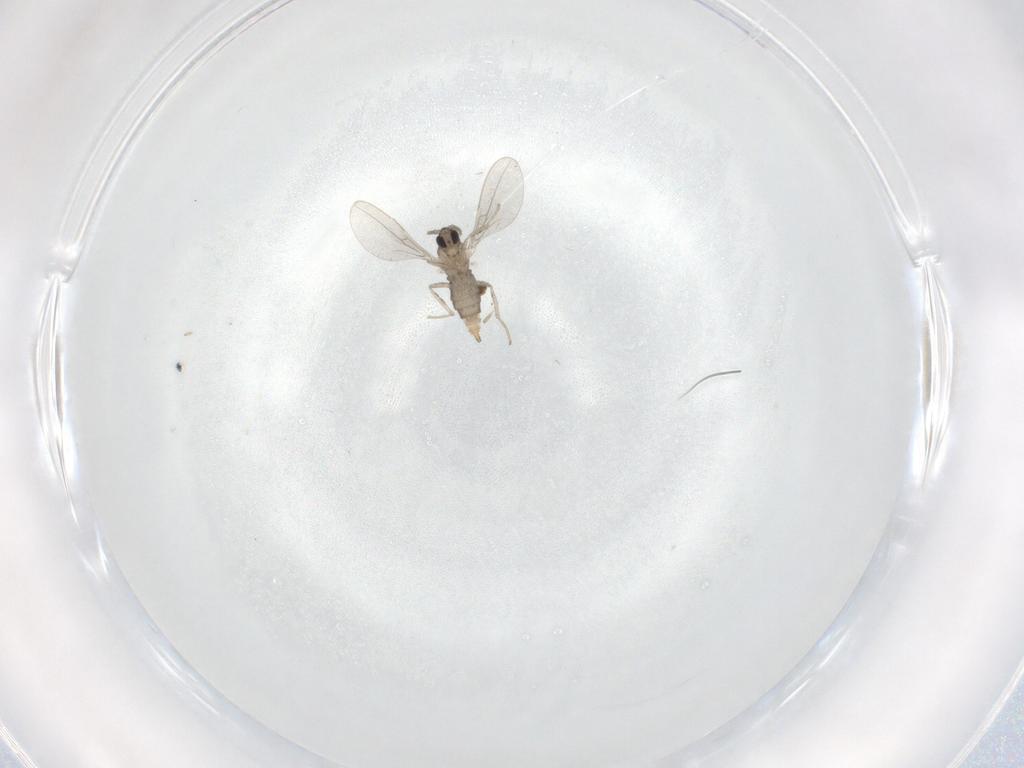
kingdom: Animalia
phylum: Arthropoda
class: Insecta
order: Diptera
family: Cecidomyiidae
